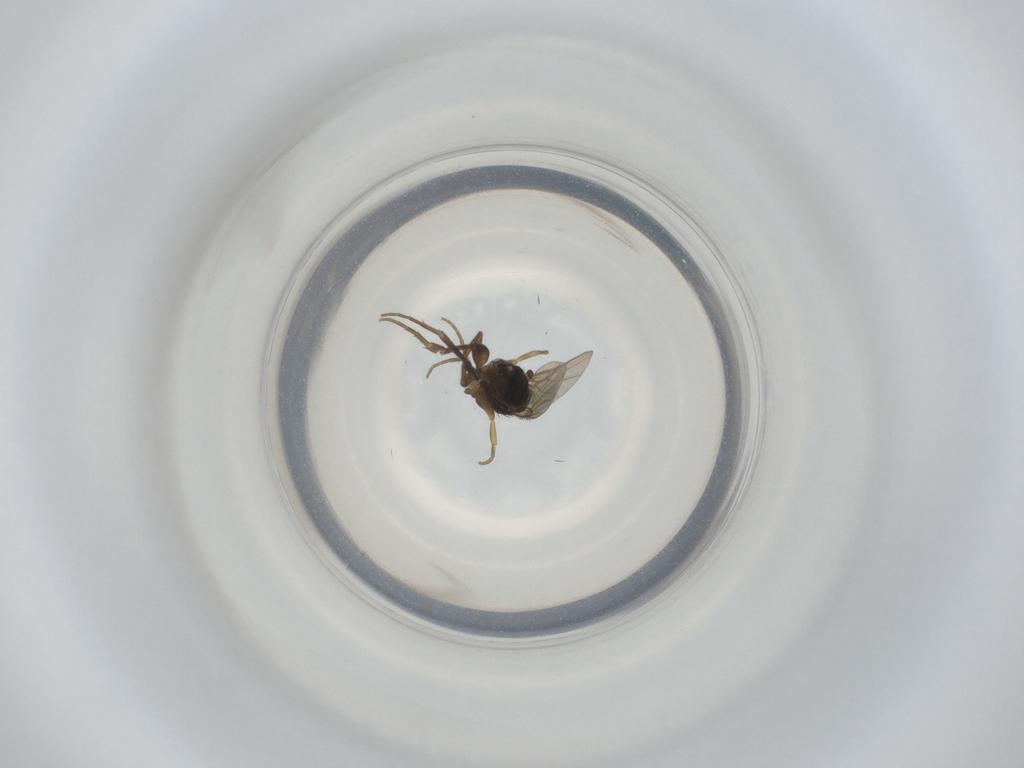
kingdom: Animalia
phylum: Arthropoda
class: Insecta
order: Diptera
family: Phoridae
